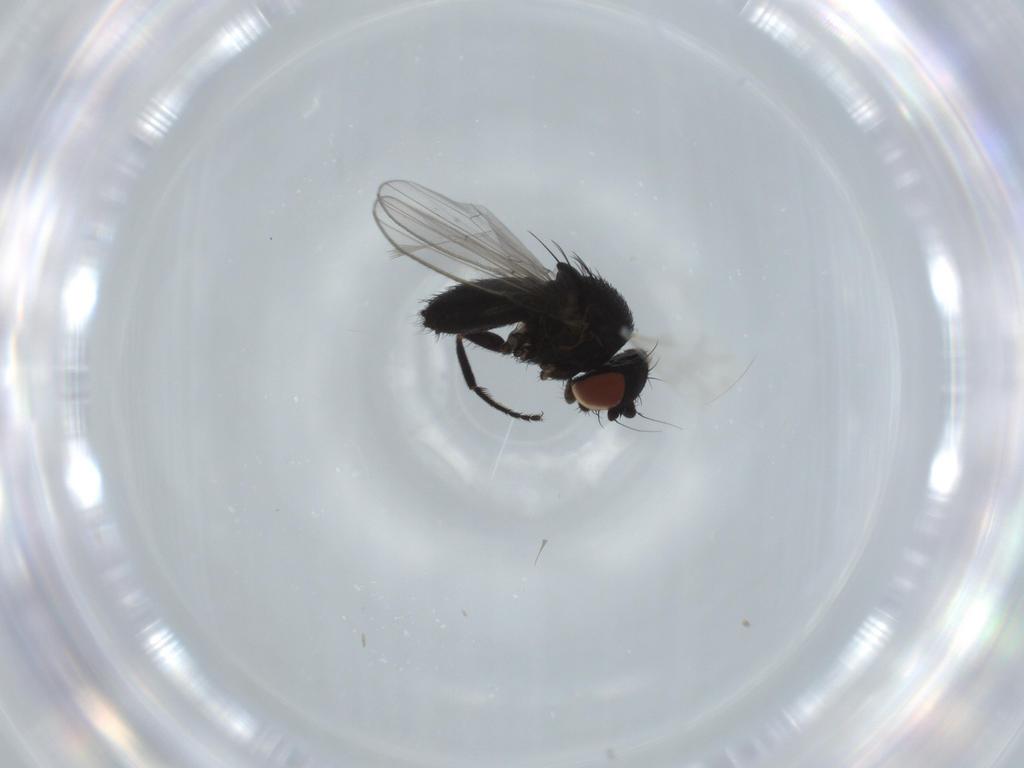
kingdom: Animalia
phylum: Arthropoda
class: Insecta
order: Diptera
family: Milichiidae
